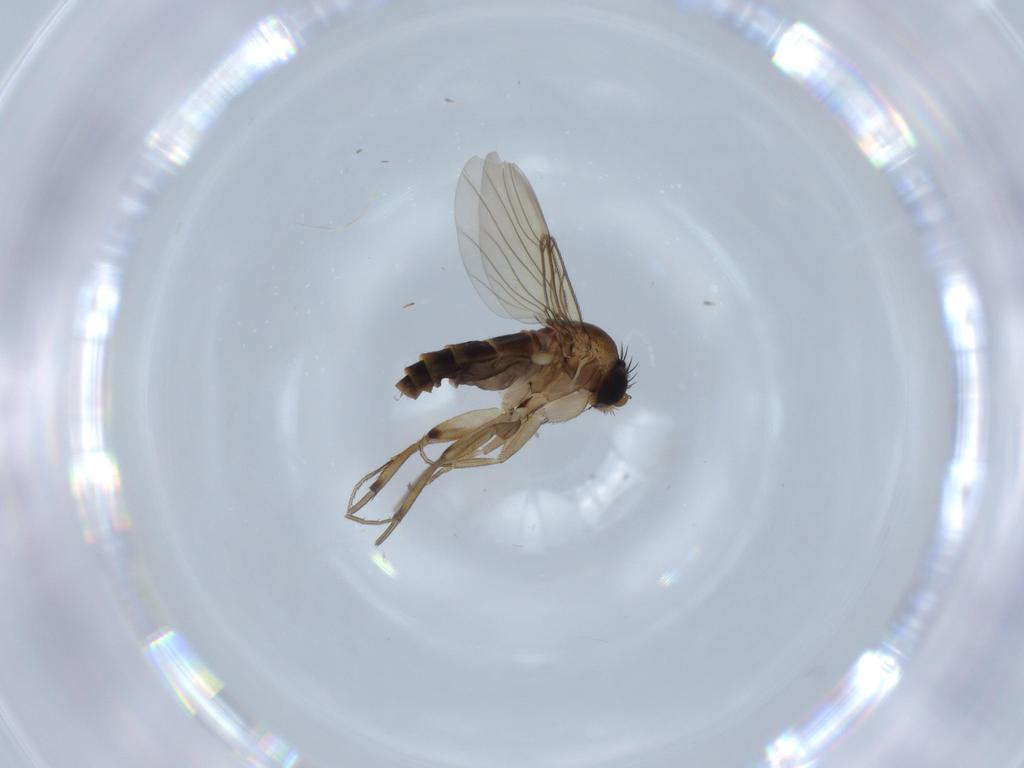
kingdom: Animalia
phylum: Arthropoda
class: Insecta
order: Diptera
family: Phoridae
